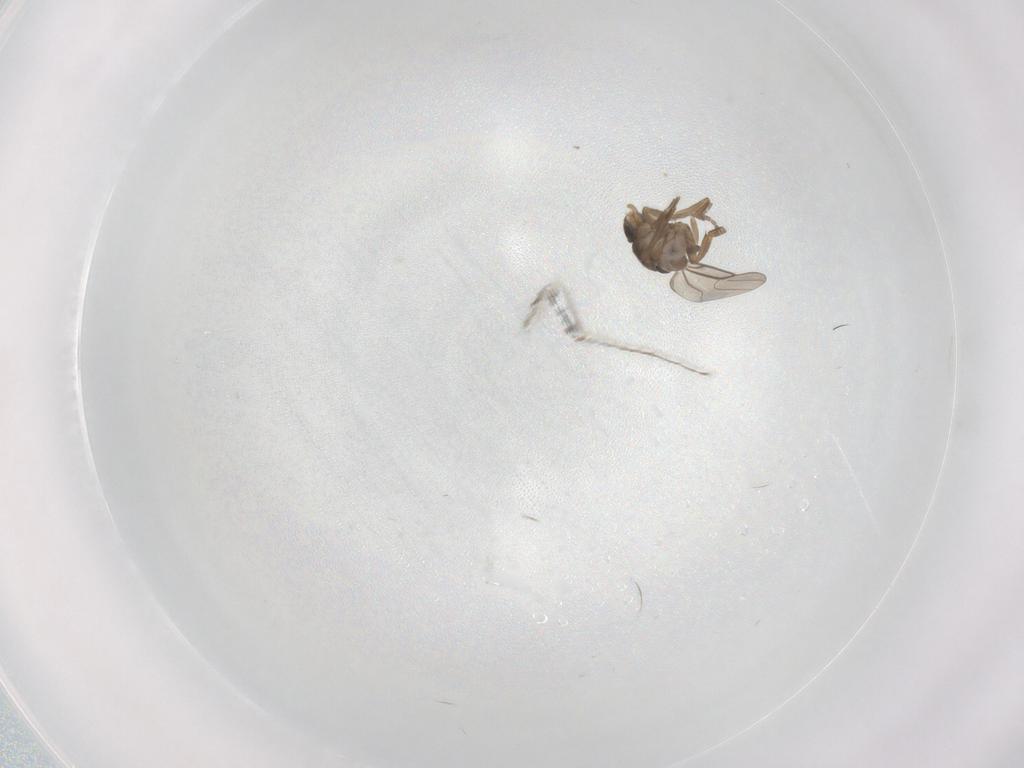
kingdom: Animalia
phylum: Arthropoda
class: Insecta
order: Diptera
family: Phoridae
